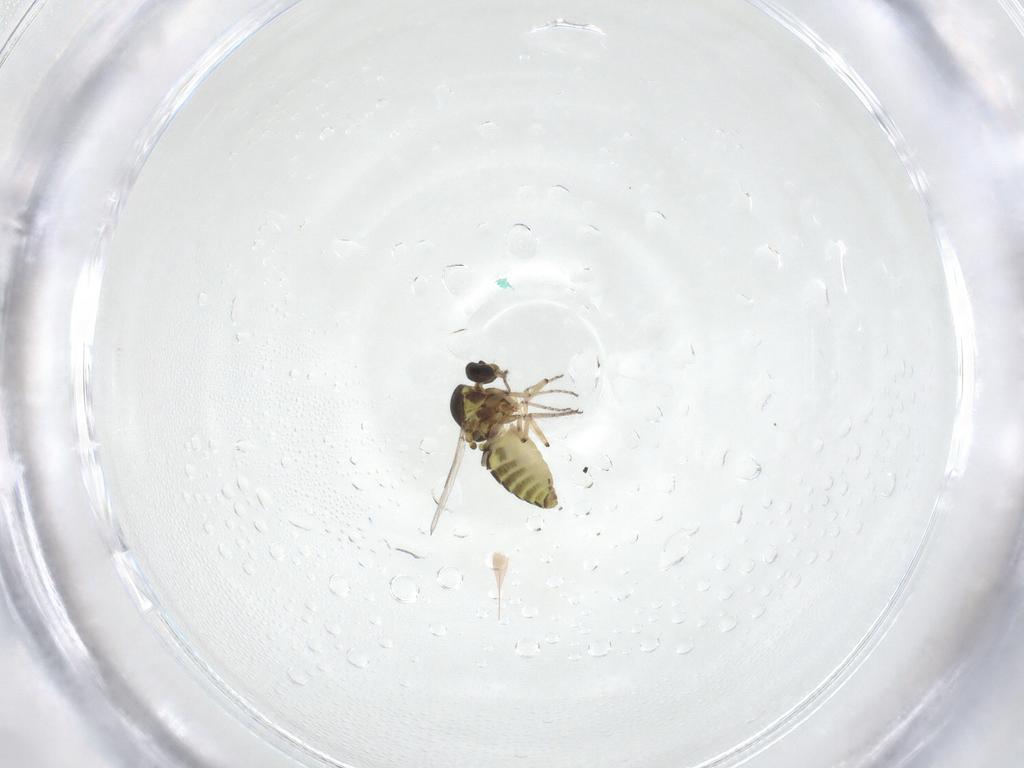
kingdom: Animalia
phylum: Arthropoda
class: Insecta
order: Diptera
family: Ceratopogonidae
